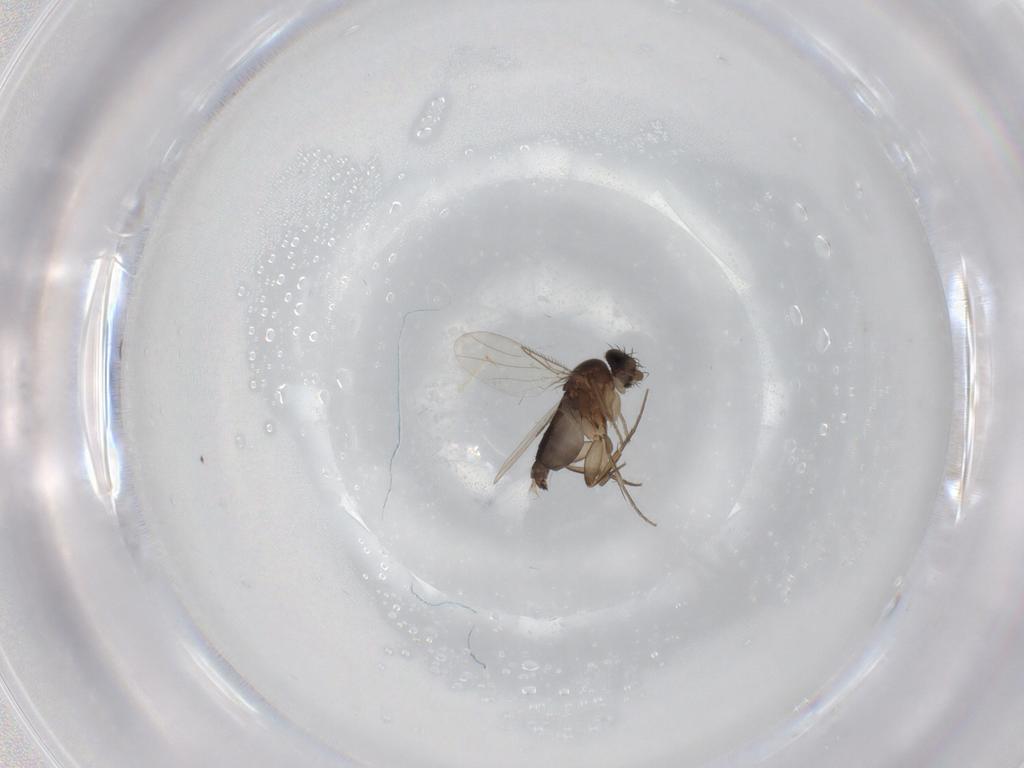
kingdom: Animalia
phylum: Arthropoda
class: Insecta
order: Diptera
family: Phoridae
